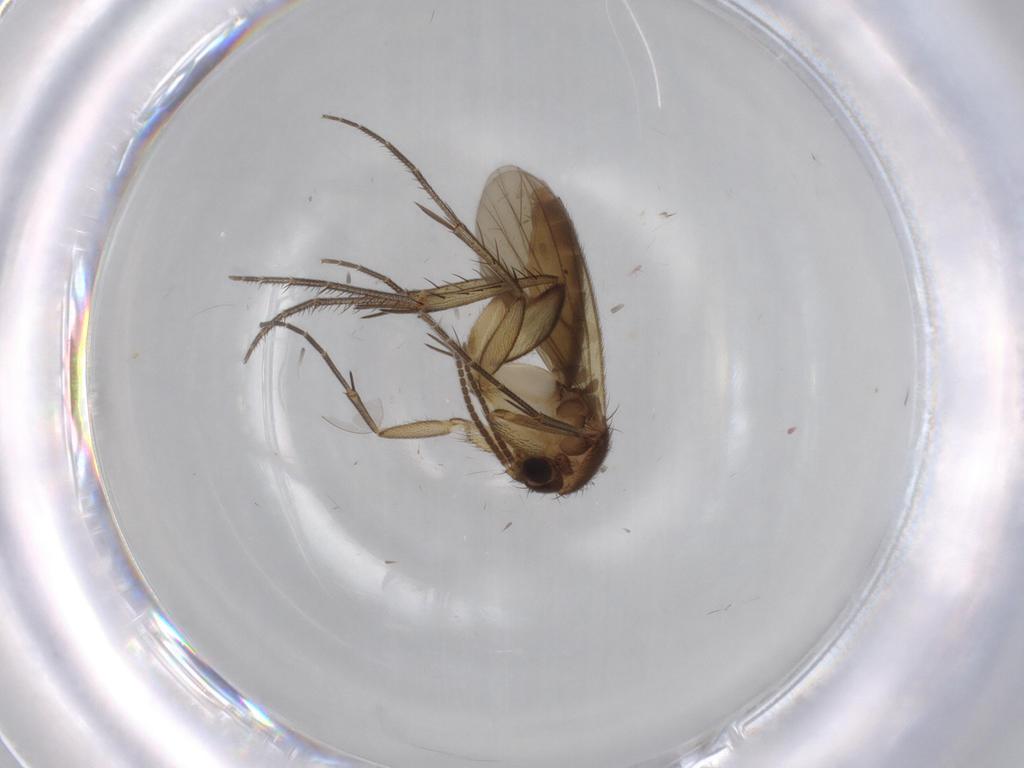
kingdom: Animalia
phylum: Arthropoda
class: Insecta
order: Diptera
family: Cecidomyiidae
